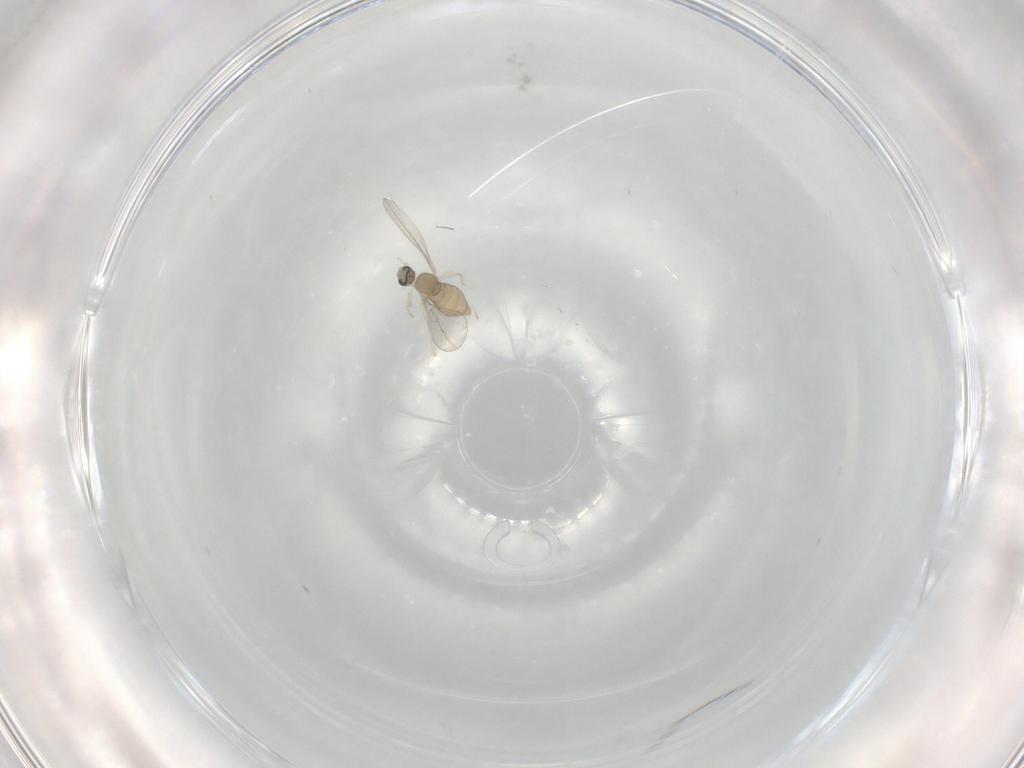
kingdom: Animalia
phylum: Arthropoda
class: Insecta
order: Diptera
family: Cecidomyiidae
